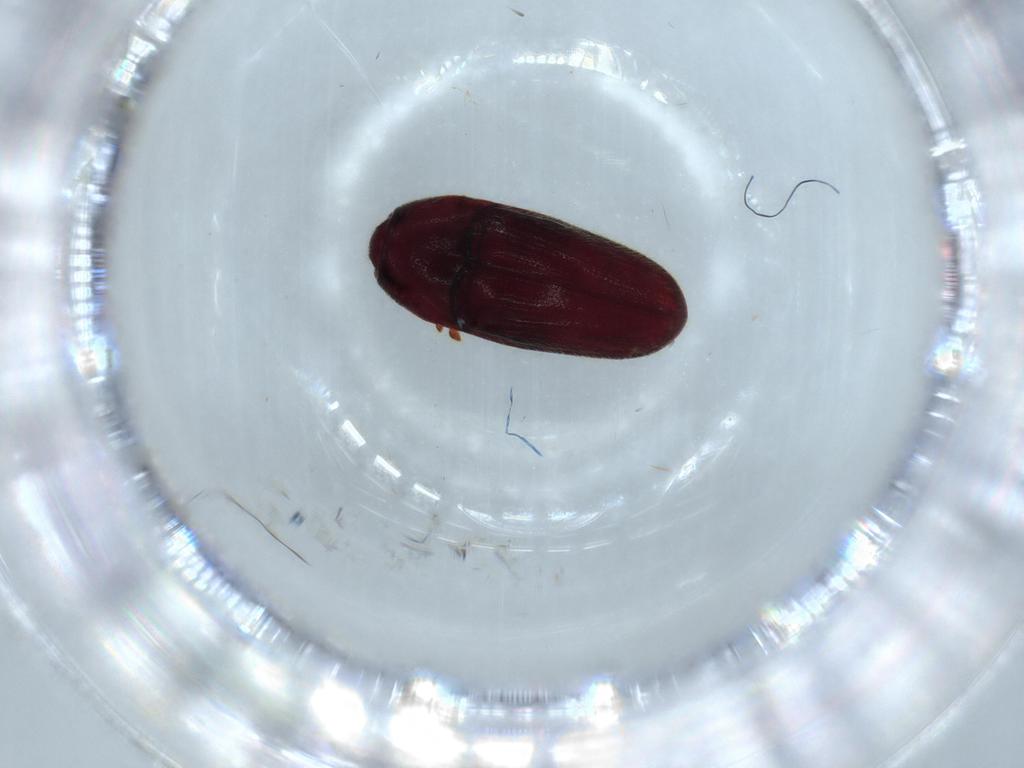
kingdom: Animalia
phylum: Arthropoda
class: Insecta
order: Coleoptera
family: Throscidae
